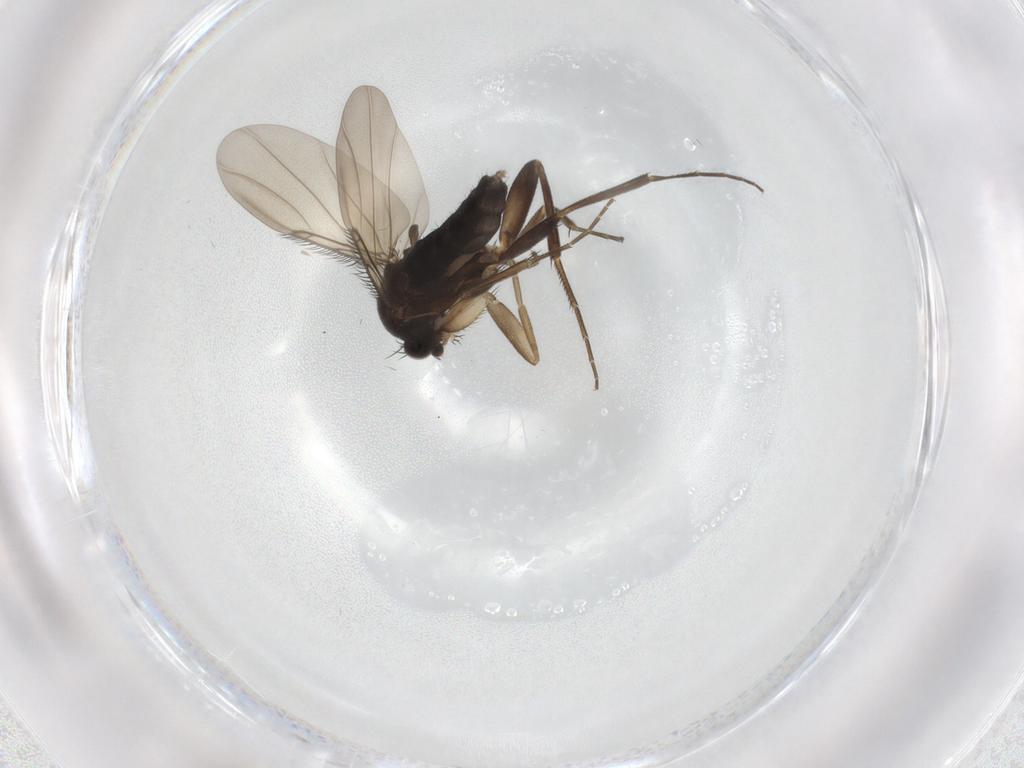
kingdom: Animalia
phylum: Arthropoda
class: Insecta
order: Diptera
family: Phoridae
